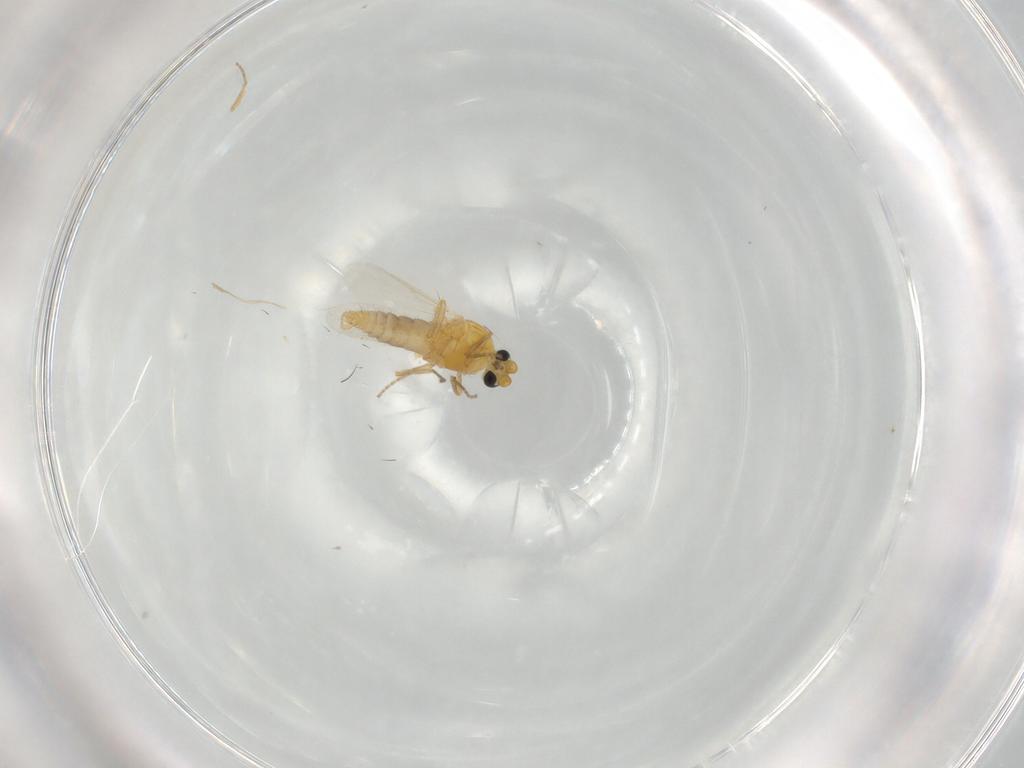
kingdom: Animalia
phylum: Arthropoda
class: Insecta
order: Diptera
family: Ceratopogonidae
